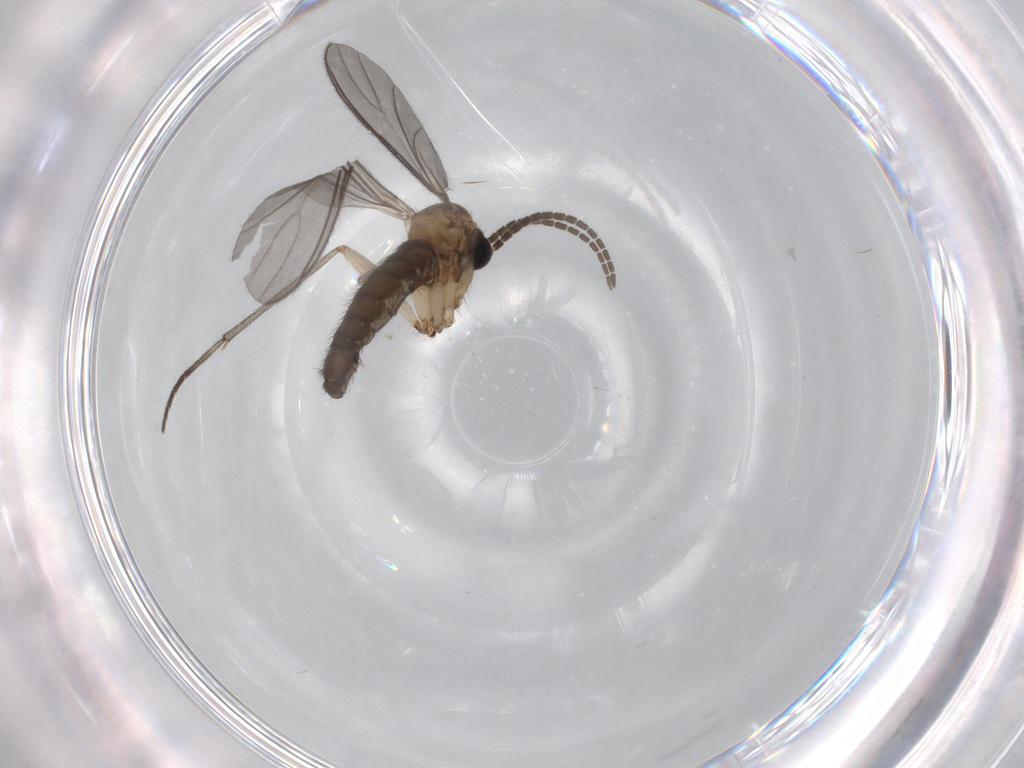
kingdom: Animalia
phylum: Arthropoda
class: Insecta
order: Diptera
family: Sciaridae
